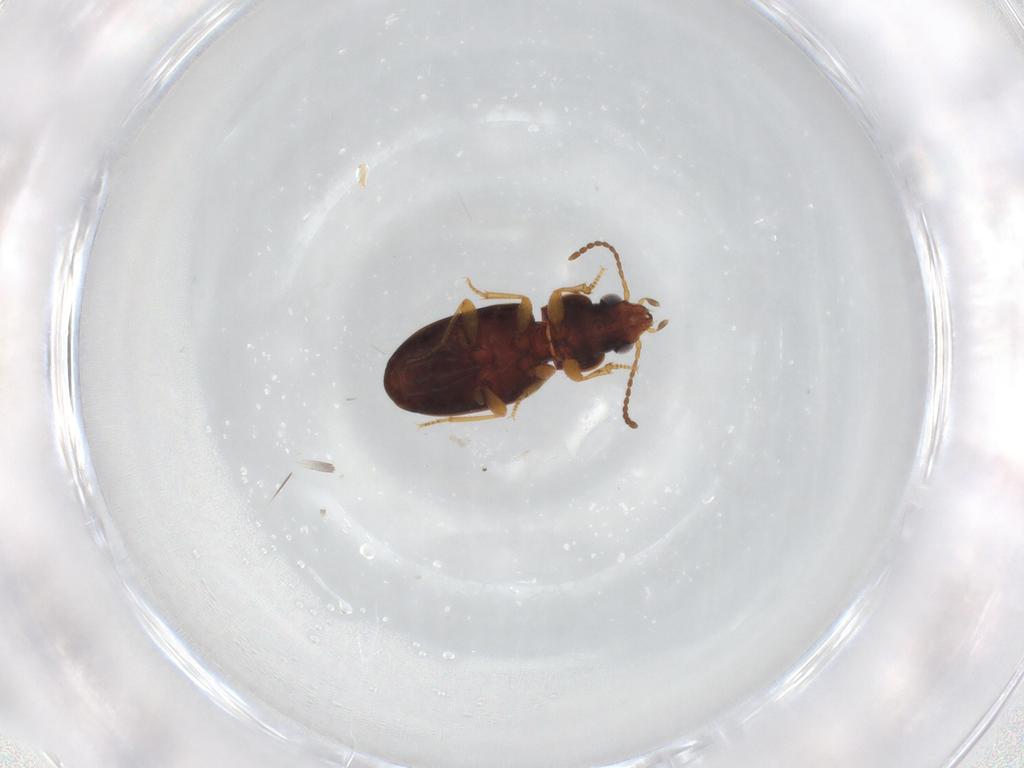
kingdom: Animalia
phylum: Arthropoda
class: Insecta
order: Coleoptera
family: Carabidae
